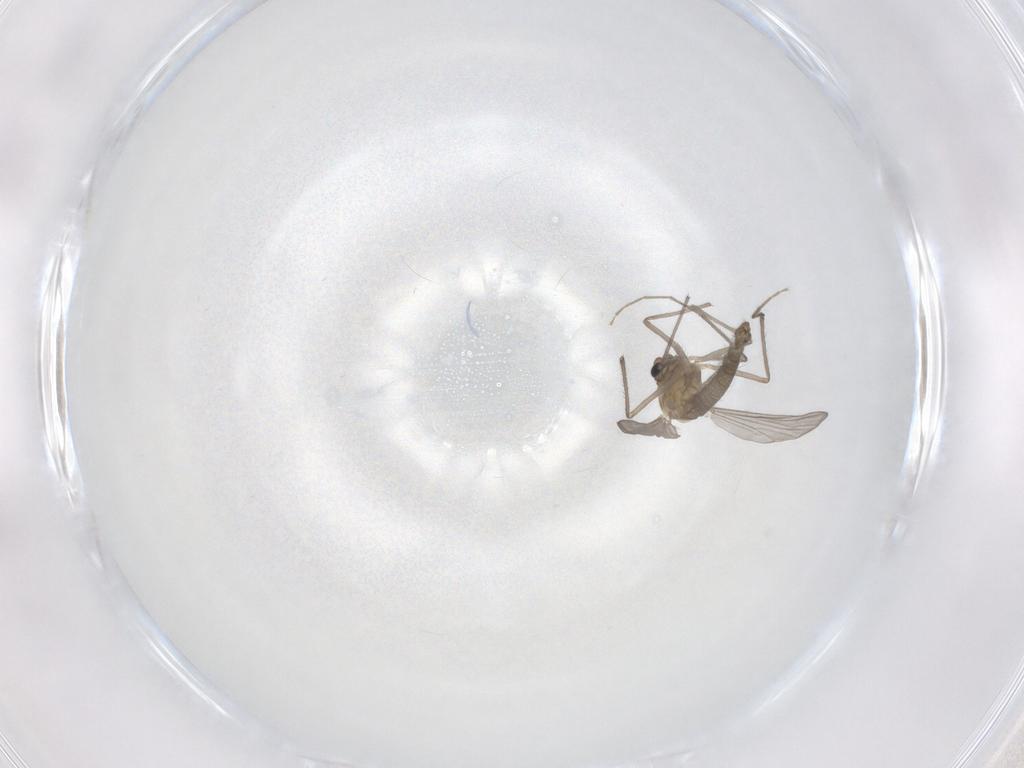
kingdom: Animalia
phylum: Arthropoda
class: Insecta
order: Diptera
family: Chironomidae
